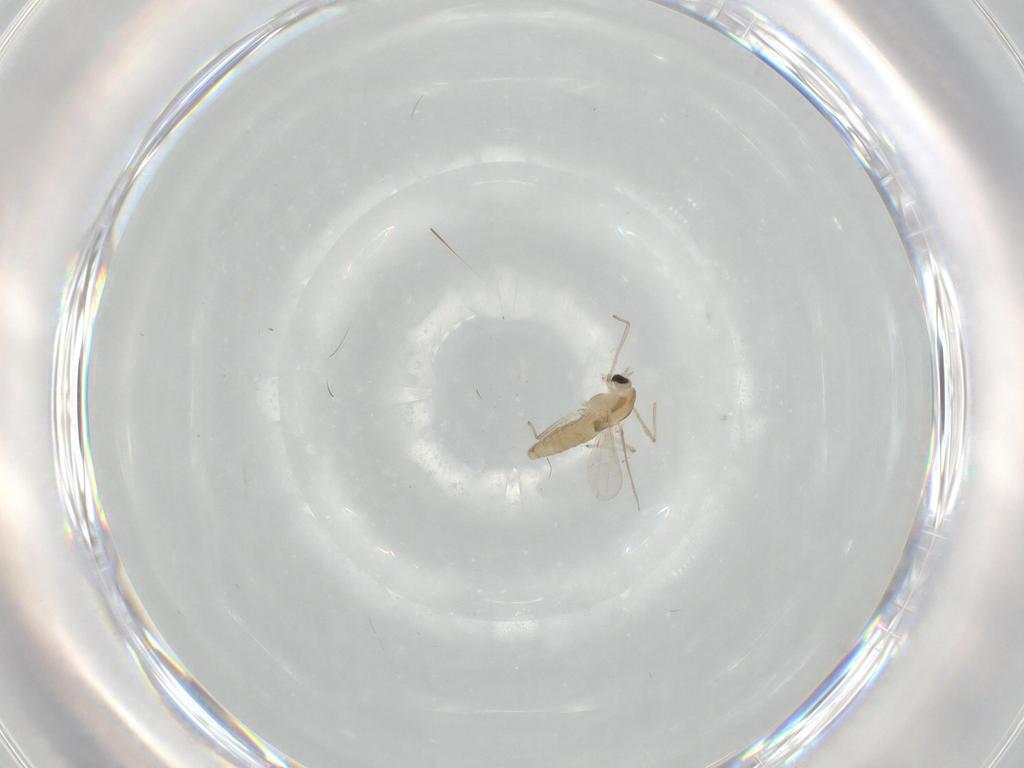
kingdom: Animalia
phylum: Arthropoda
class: Insecta
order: Diptera
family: Chironomidae
